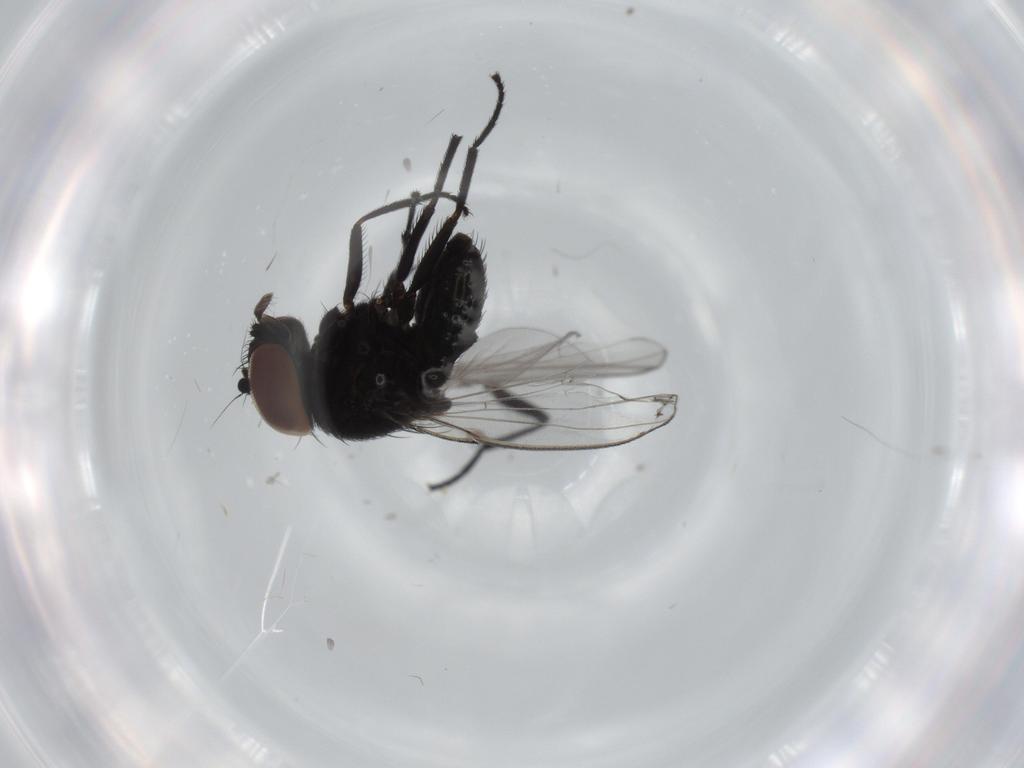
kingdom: Animalia
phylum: Arthropoda
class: Insecta
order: Diptera
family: Milichiidae
